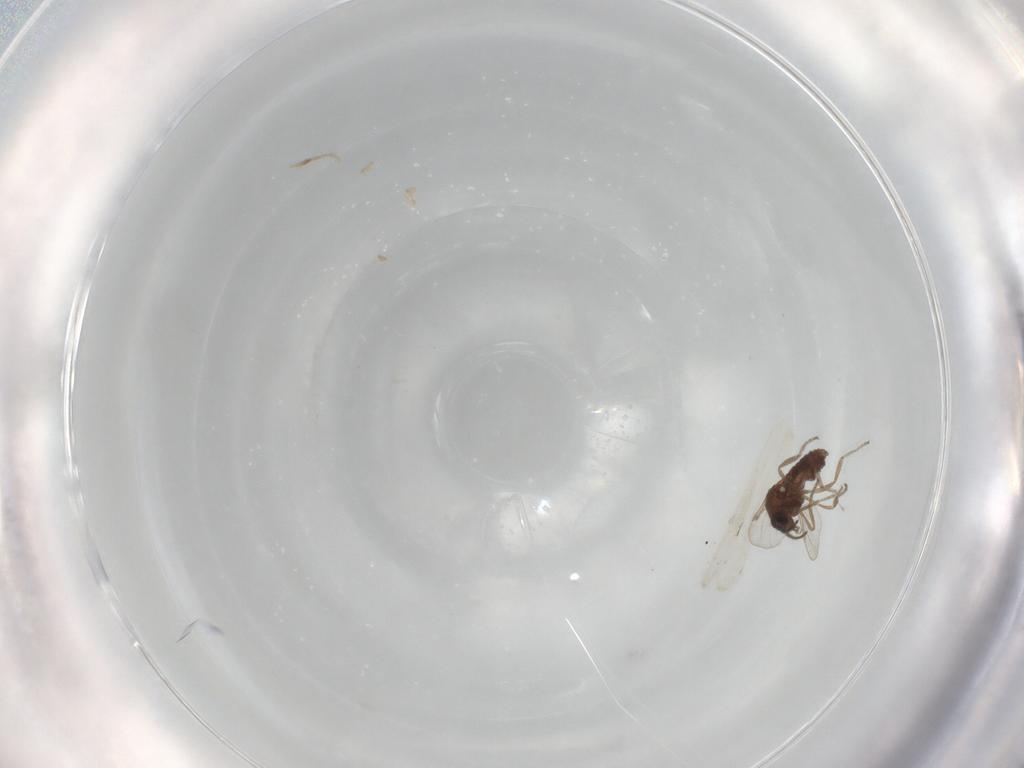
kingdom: Animalia
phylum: Arthropoda
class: Insecta
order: Diptera
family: Ceratopogonidae
